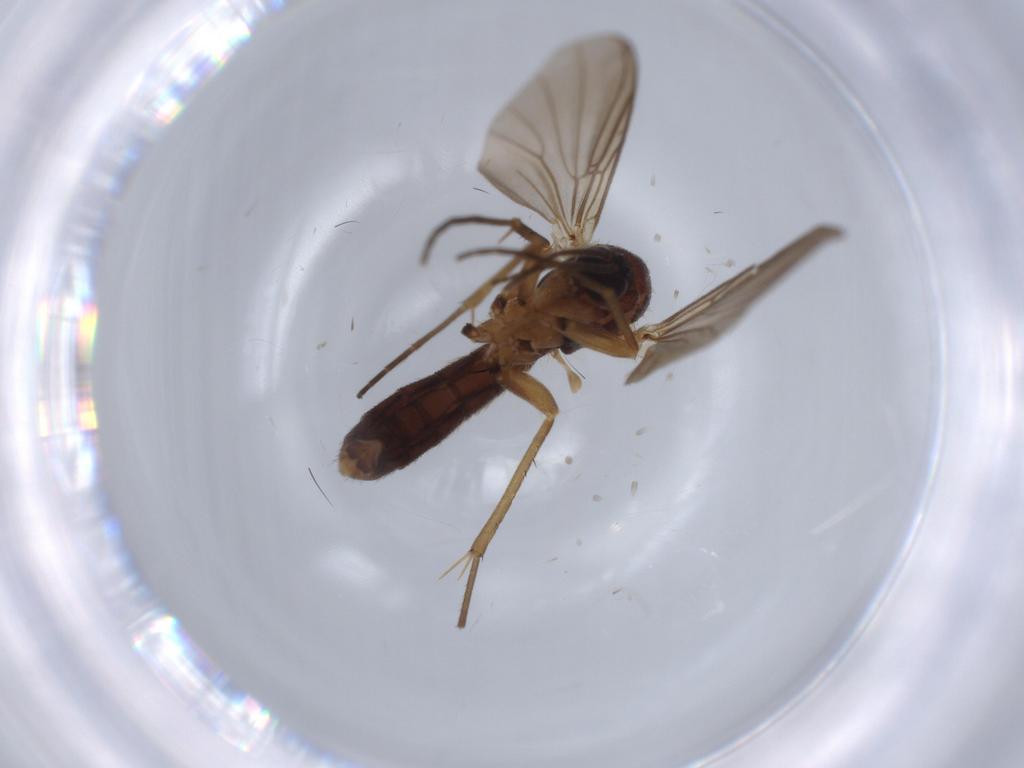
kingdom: Animalia
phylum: Arthropoda
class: Insecta
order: Diptera
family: Mycetophilidae
